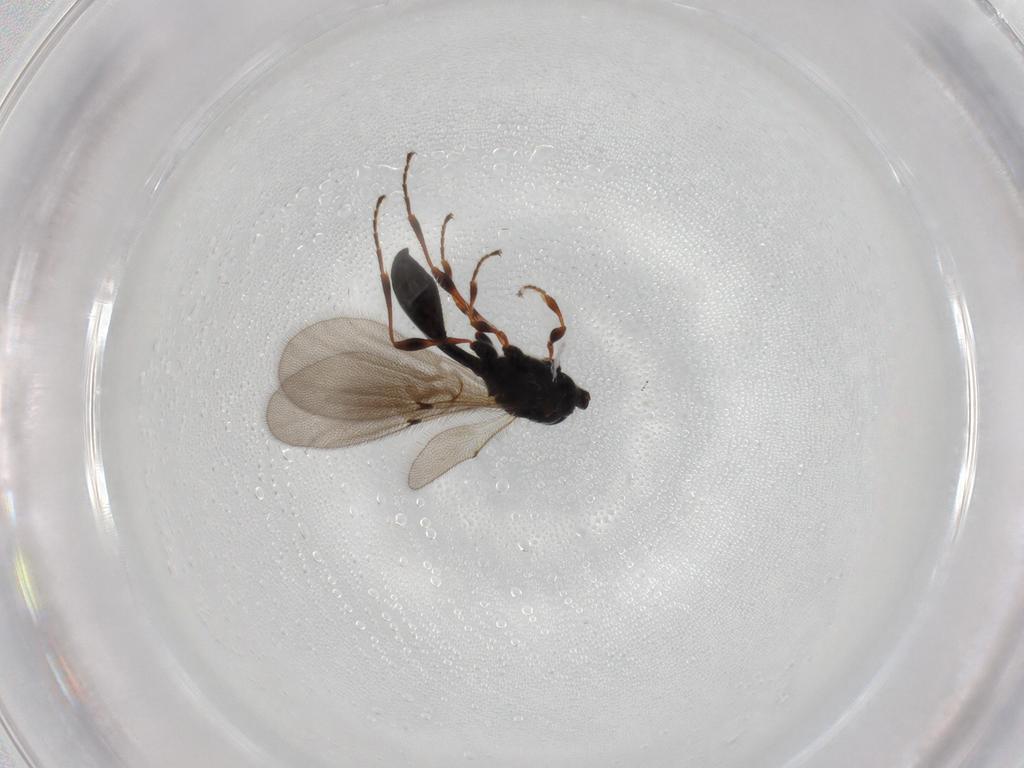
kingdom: Animalia
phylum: Arthropoda
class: Insecta
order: Hymenoptera
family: Diapriidae
